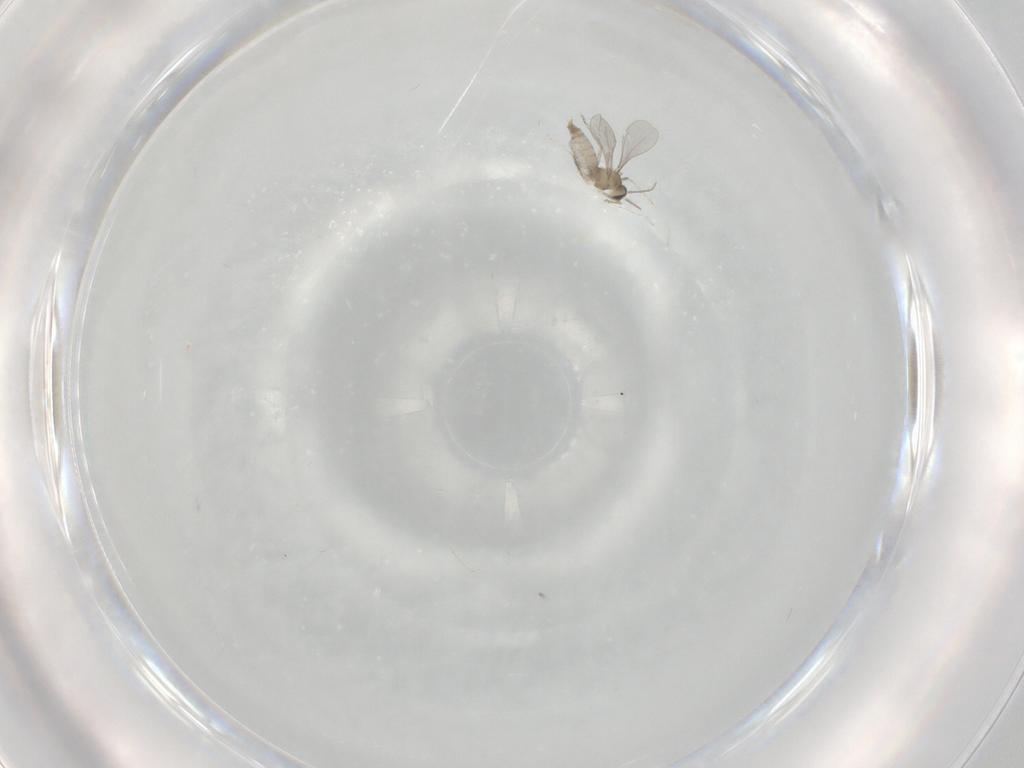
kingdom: Animalia
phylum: Arthropoda
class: Insecta
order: Diptera
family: Cecidomyiidae
